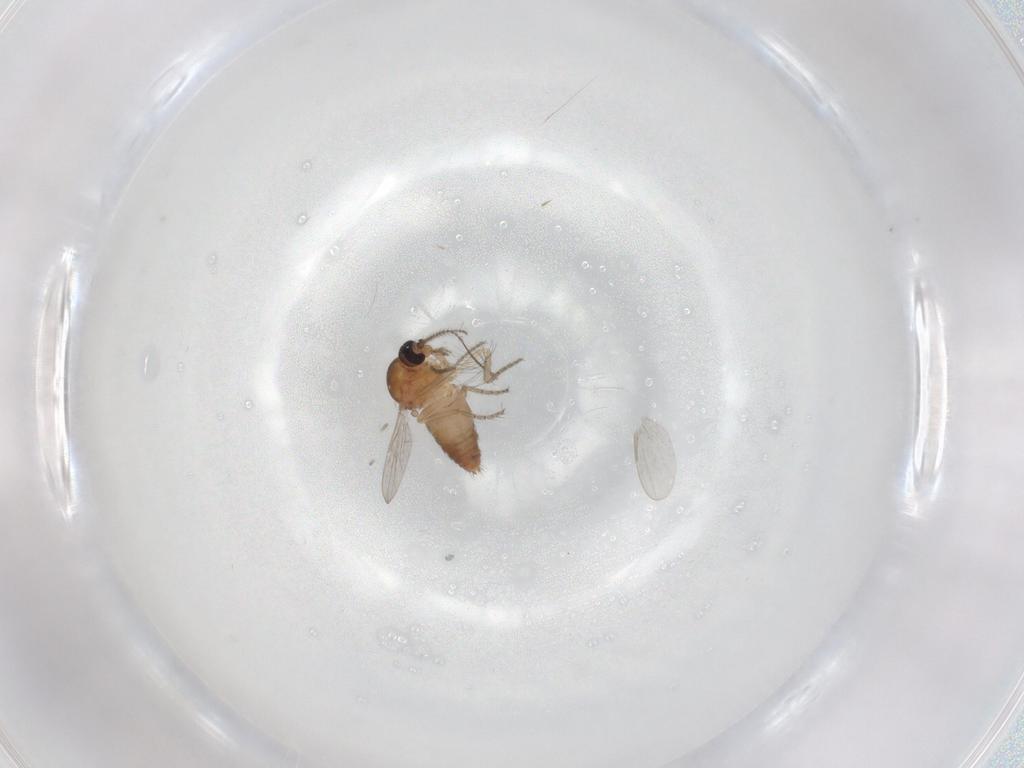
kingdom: Animalia
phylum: Arthropoda
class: Insecta
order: Diptera
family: Ceratopogonidae
